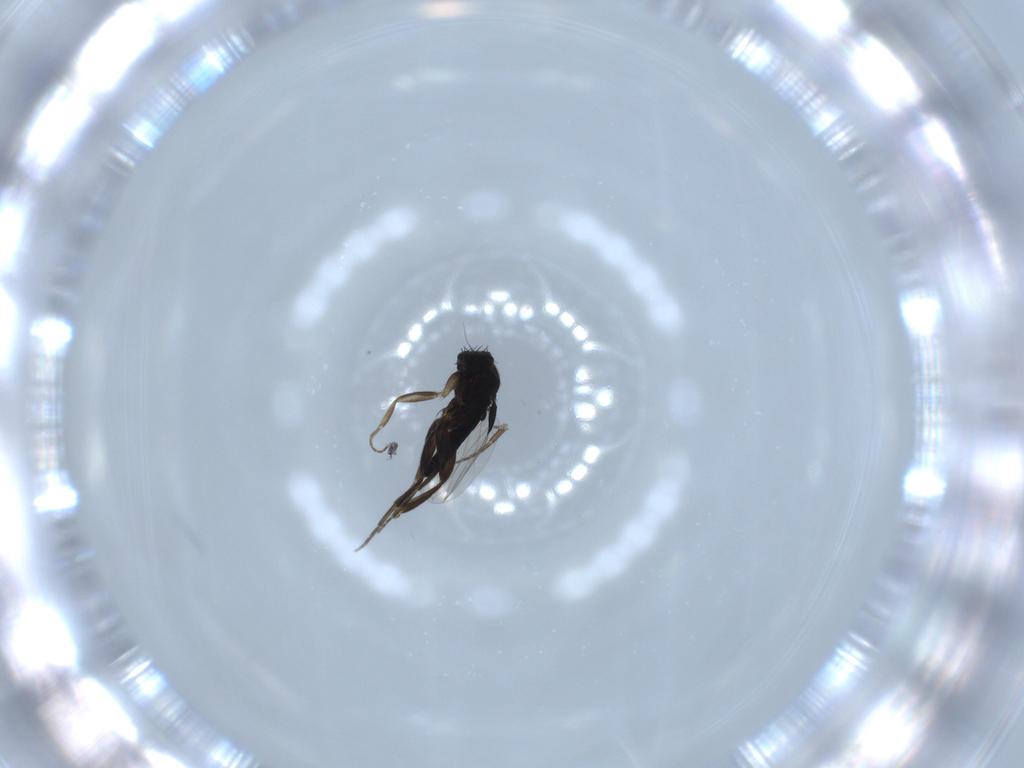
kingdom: Animalia
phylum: Arthropoda
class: Insecta
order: Diptera
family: Phoridae
